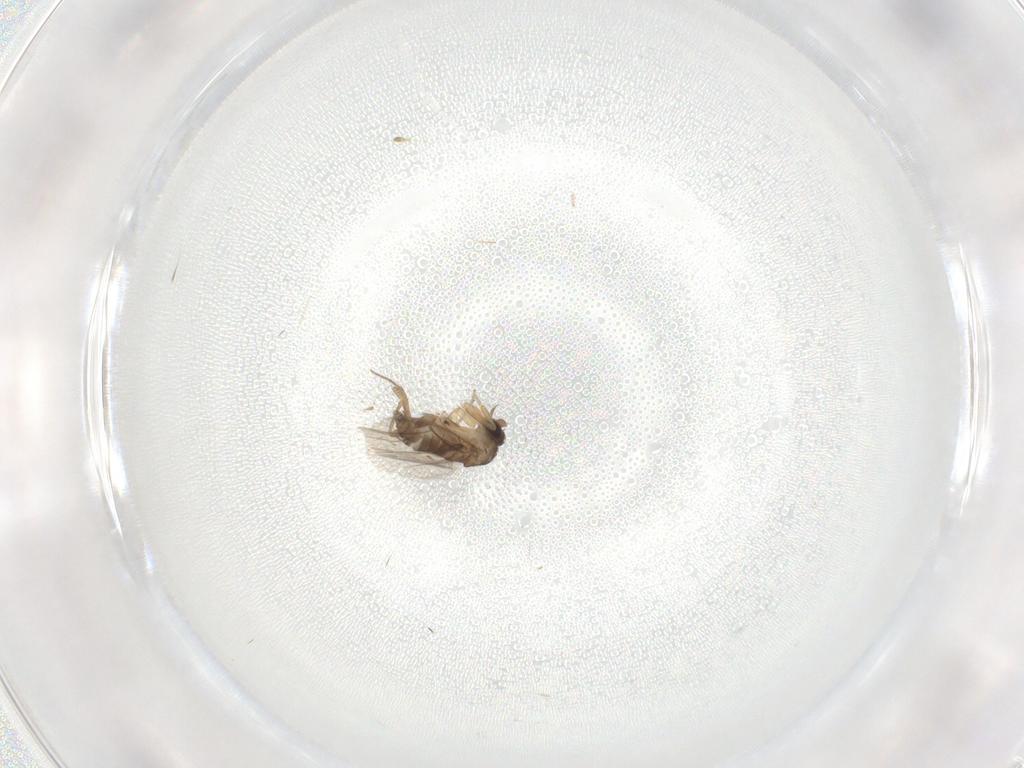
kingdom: Animalia
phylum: Arthropoda
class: Insecta
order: Diptera
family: Phoridae
